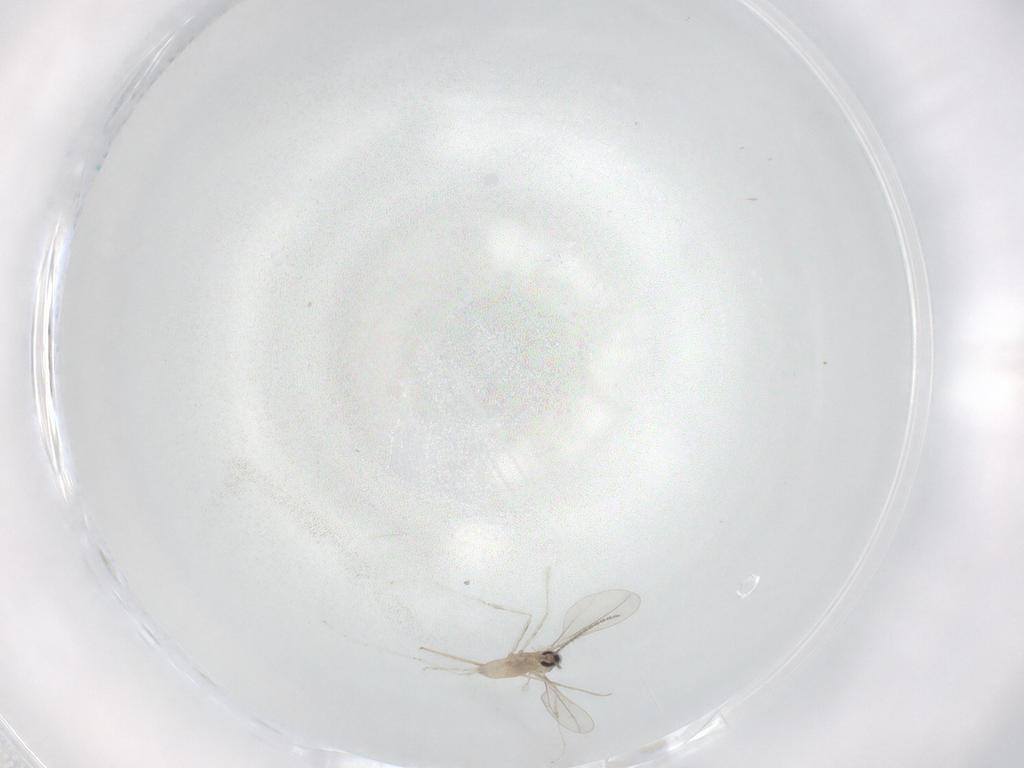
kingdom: Animalia
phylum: Arthropoda
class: Insecta
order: Diptera
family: Chironomidae
